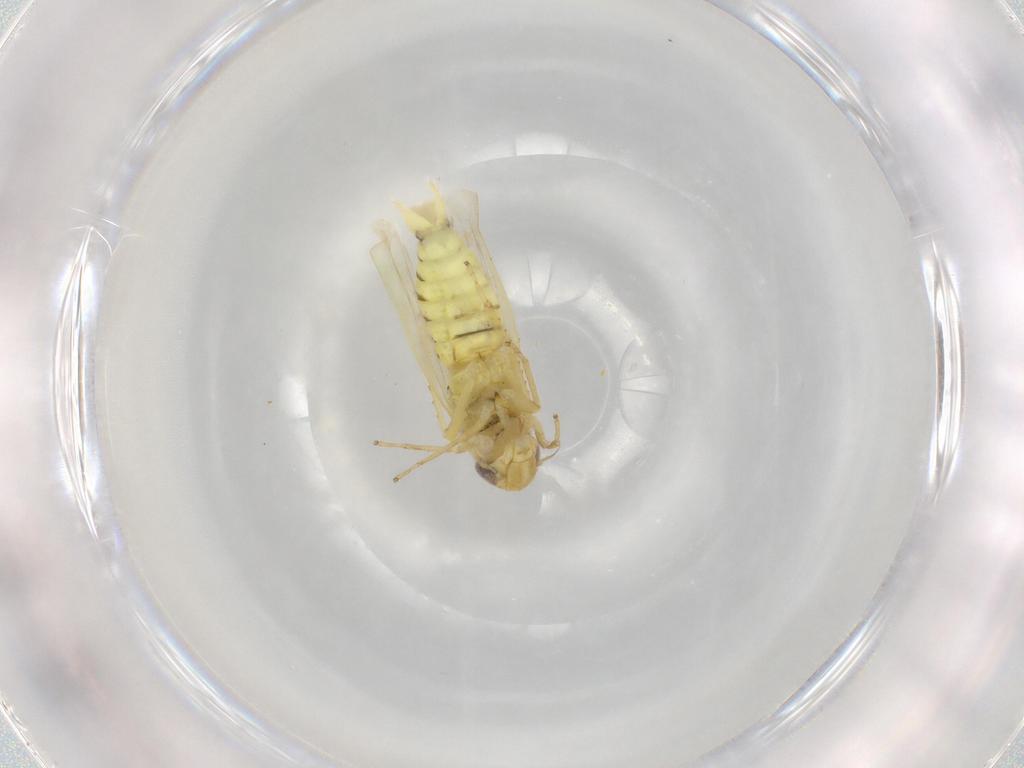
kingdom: Animalia
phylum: Arthropoda
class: Insecta
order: Hemiptera
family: Cicadellidae
